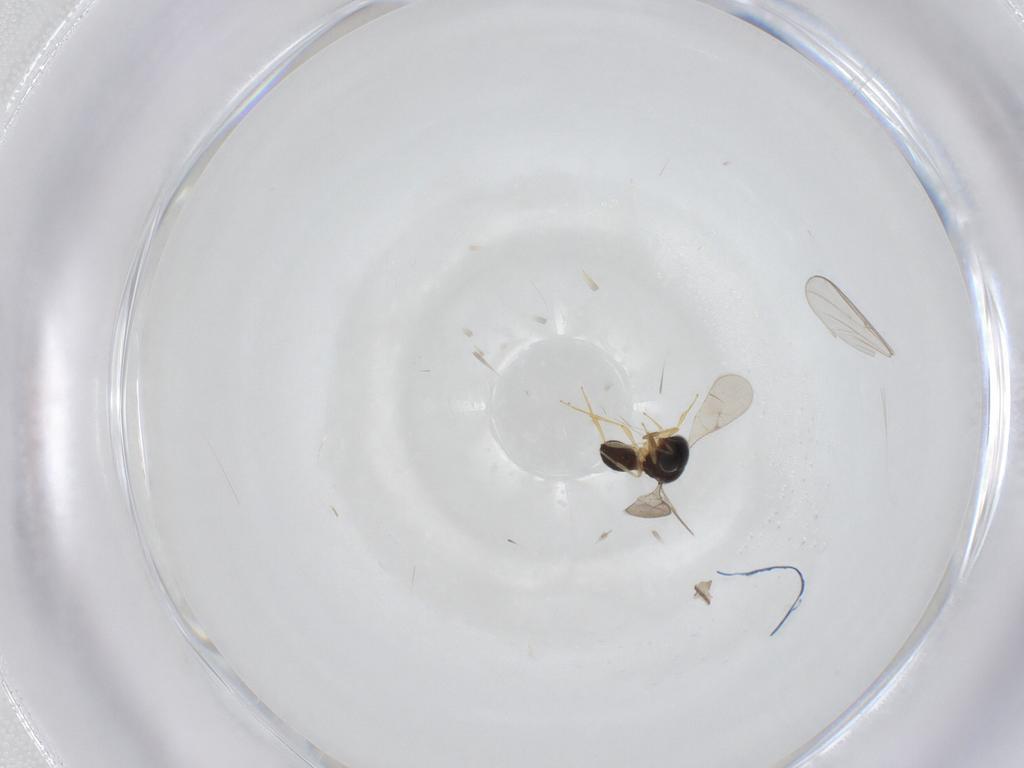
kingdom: Animalia
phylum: Arthropoda
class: Insecta
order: Hymenoptera
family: Scelionidae
